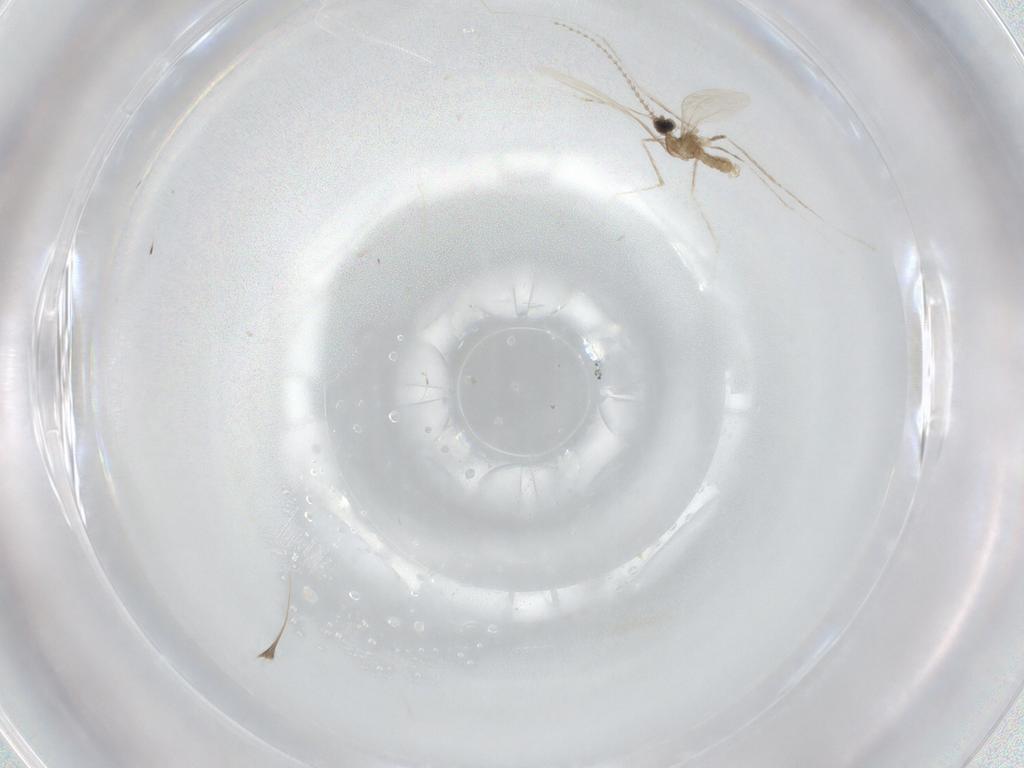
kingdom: Animalia
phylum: Arthropoda
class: Insecta
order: Diptera
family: Cecidomyiidae
